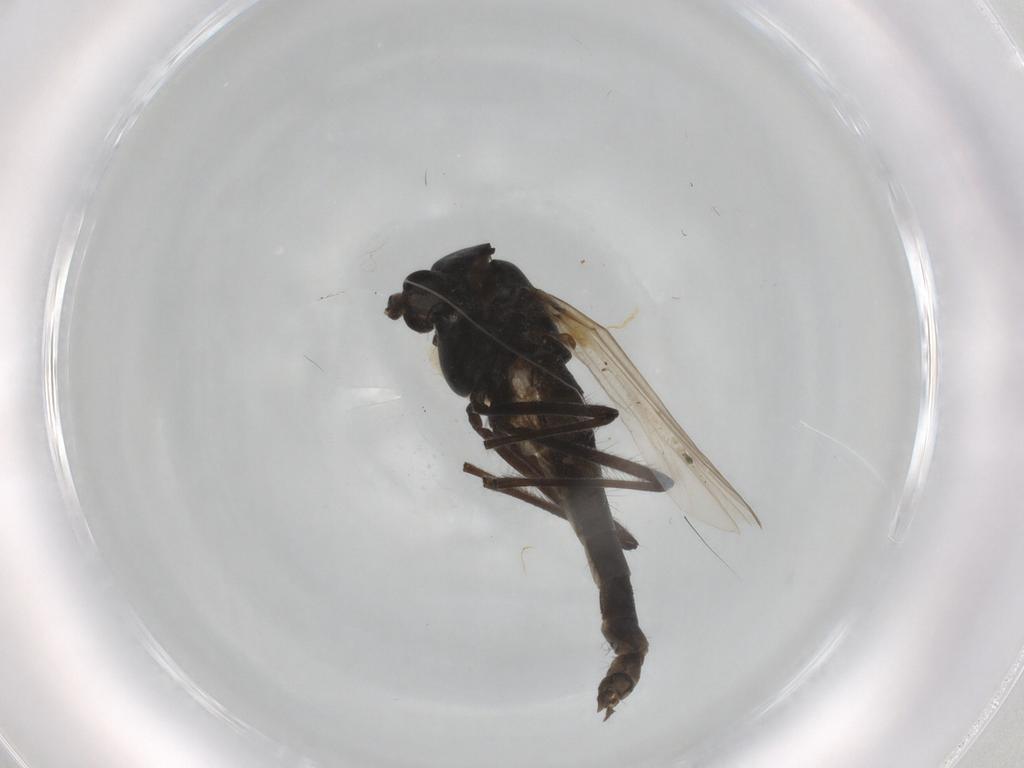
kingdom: Animalia
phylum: Arthropoda
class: Insecta
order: Diptera
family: Chironomidae
